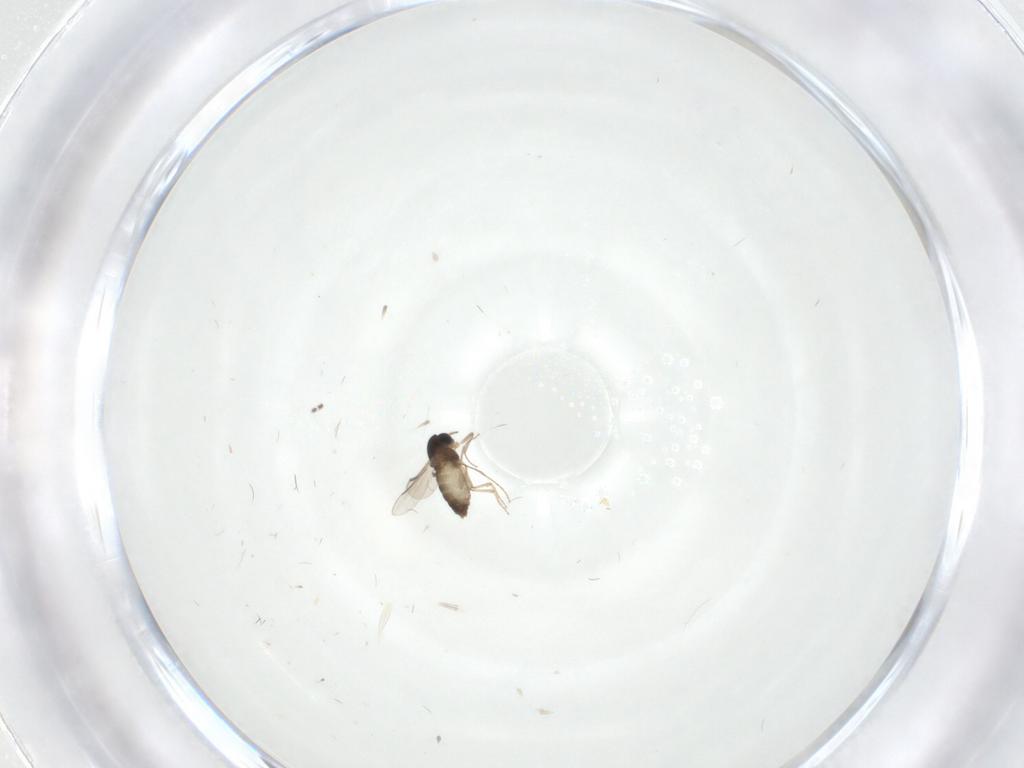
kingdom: Animalia
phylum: Arthropoda
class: Insecta
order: Diptera
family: Chironomidae
